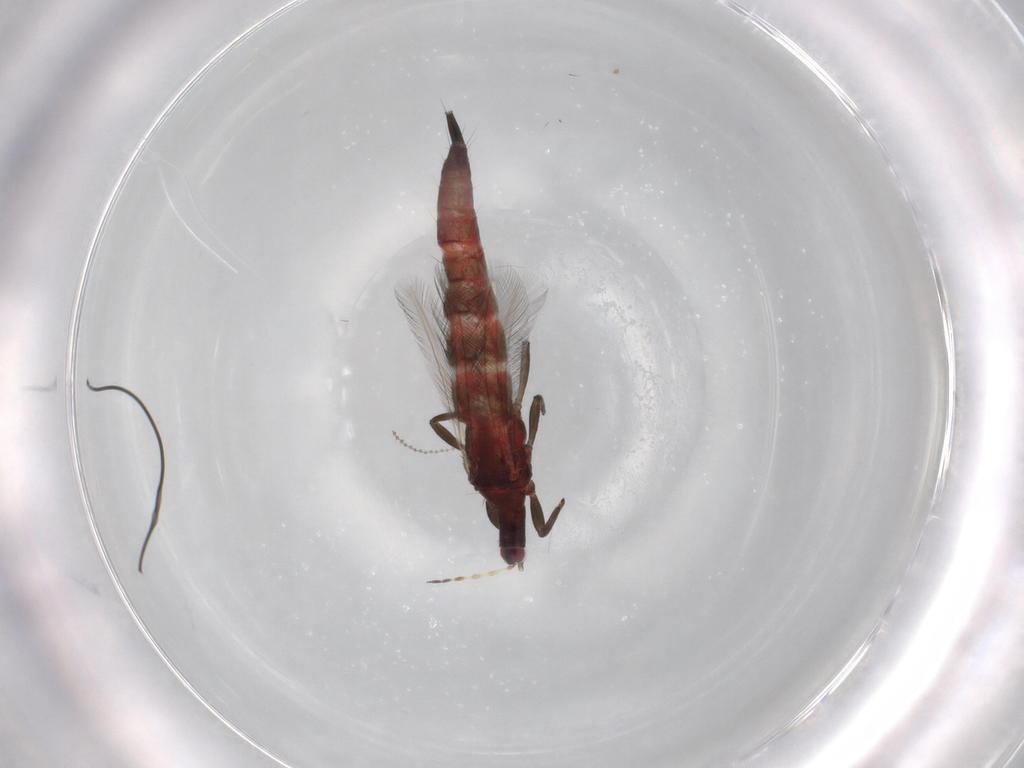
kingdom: Animalia
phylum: Arthropoda
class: Insecta
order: Thysanoptera
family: Phlaeothripidae
